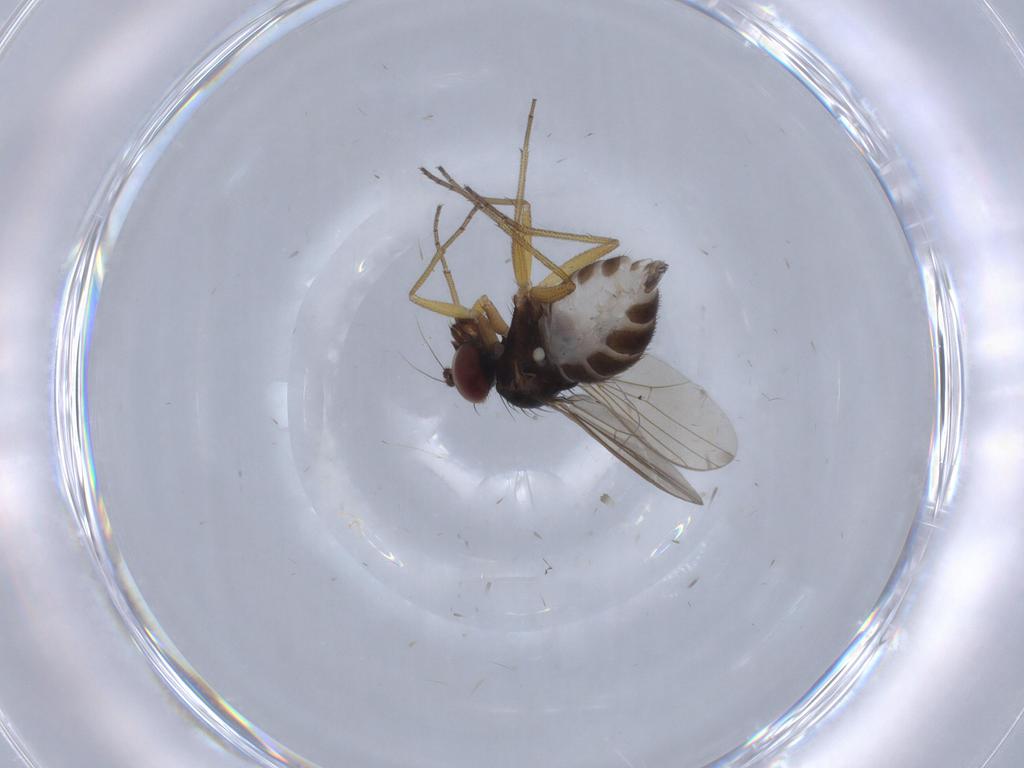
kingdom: Animalia
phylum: Arthropoda
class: Insecta
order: Diptera
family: Dolichopodidae
